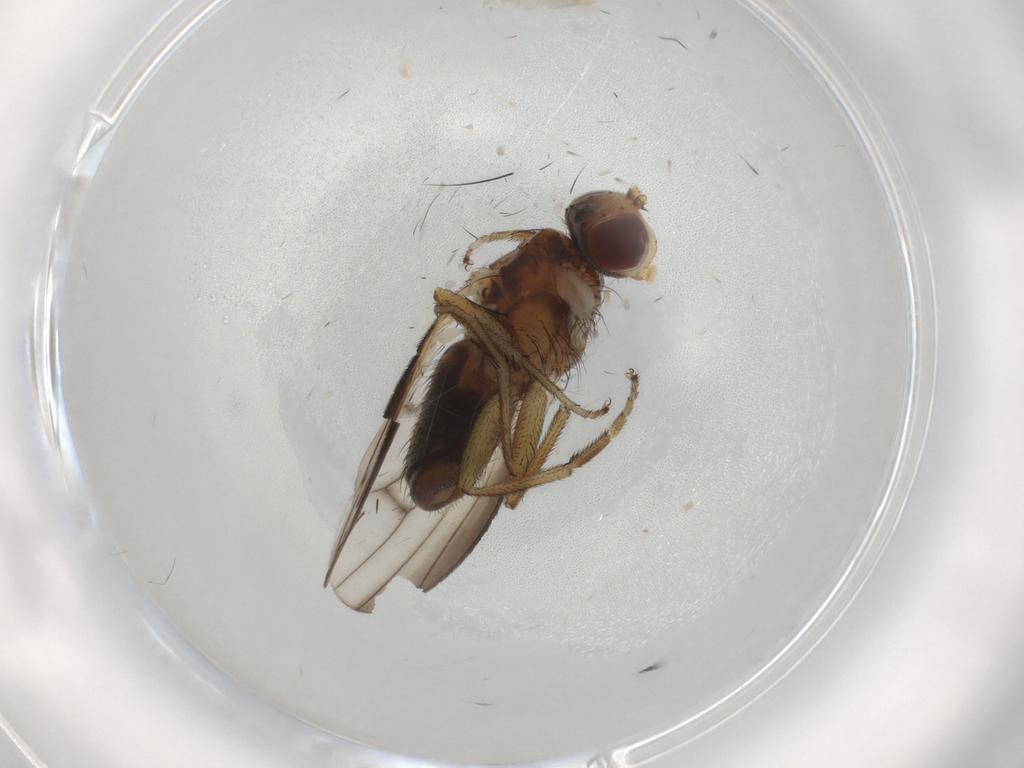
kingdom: Animalia
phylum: Arthropoda
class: Insecta
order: Diptera
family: Heleomyzidae
